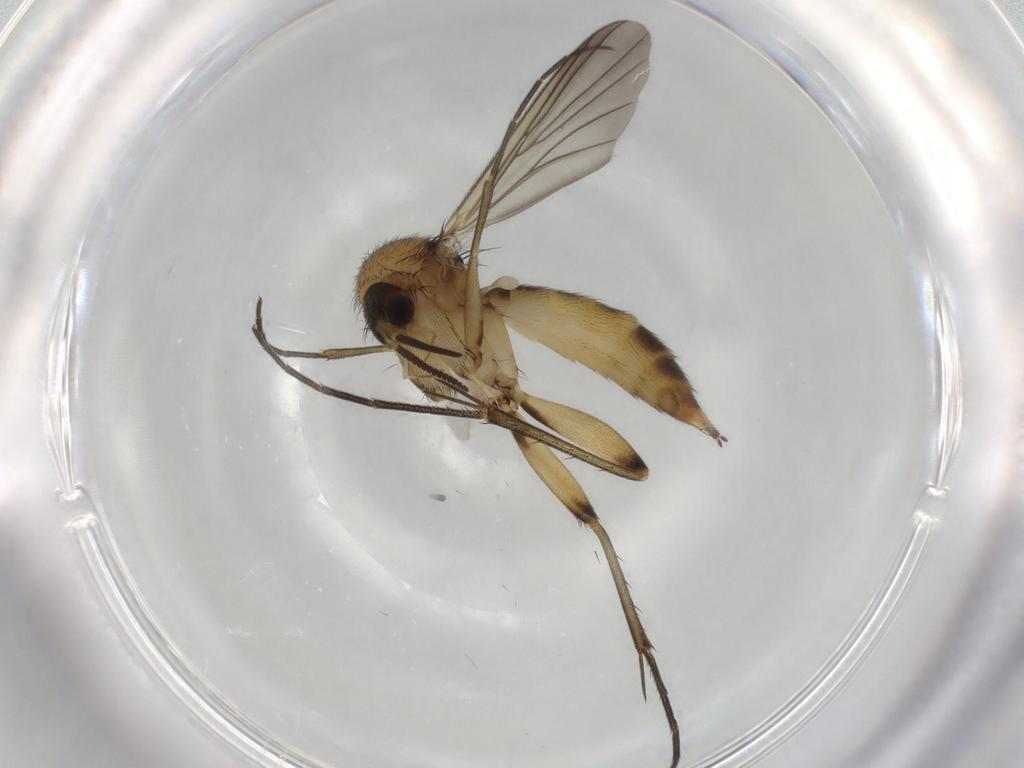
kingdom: Animalia
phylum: Arthropoda
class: Insecta
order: Diptera
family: Mycetophilidae
